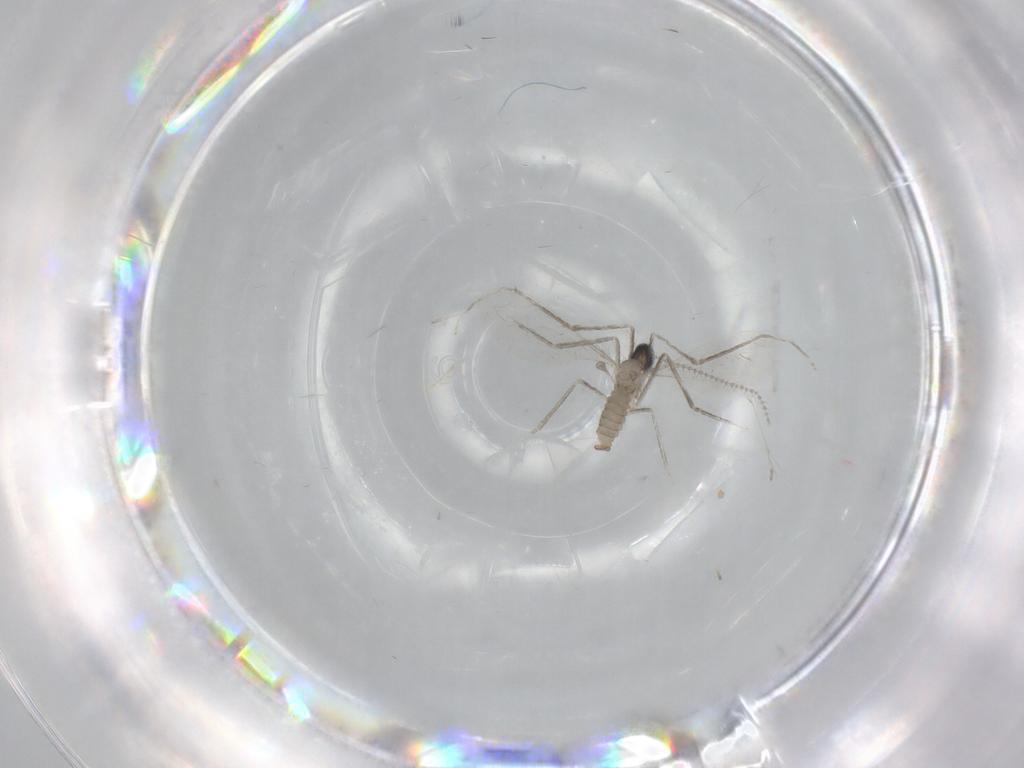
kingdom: Animalia
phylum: Arthropoda
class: Insecta
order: Diptera
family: Cecidomyiidae
